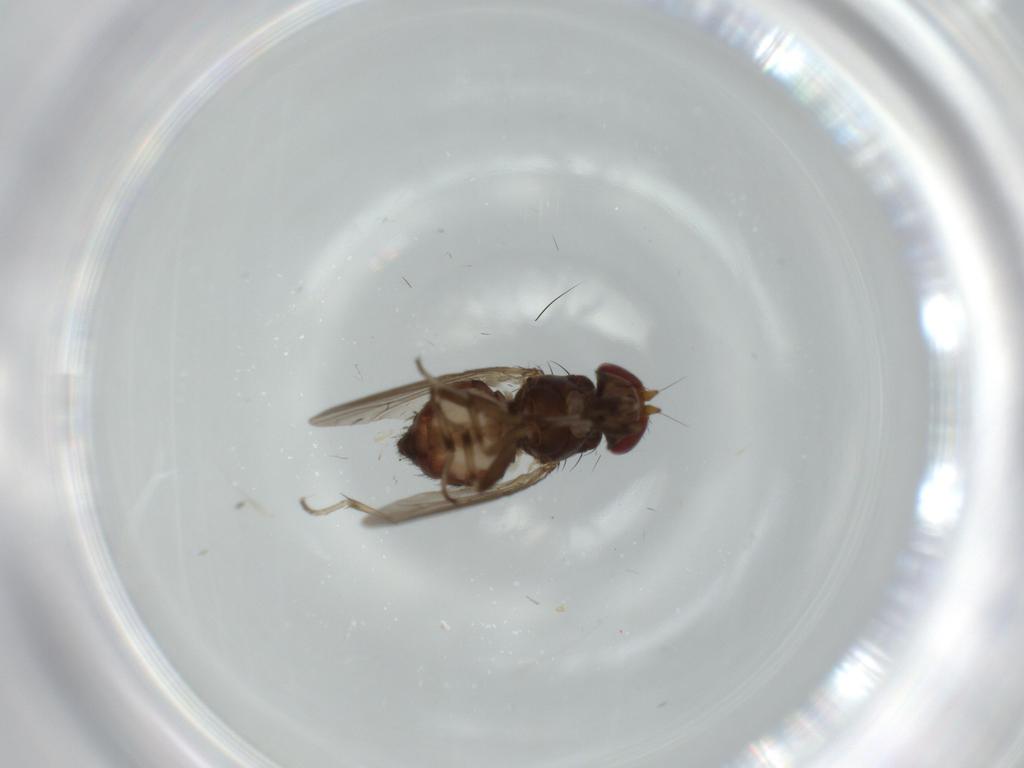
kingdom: Animalia
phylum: Arthropoda
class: Insecta
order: Diptera
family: Heleomyzidae
